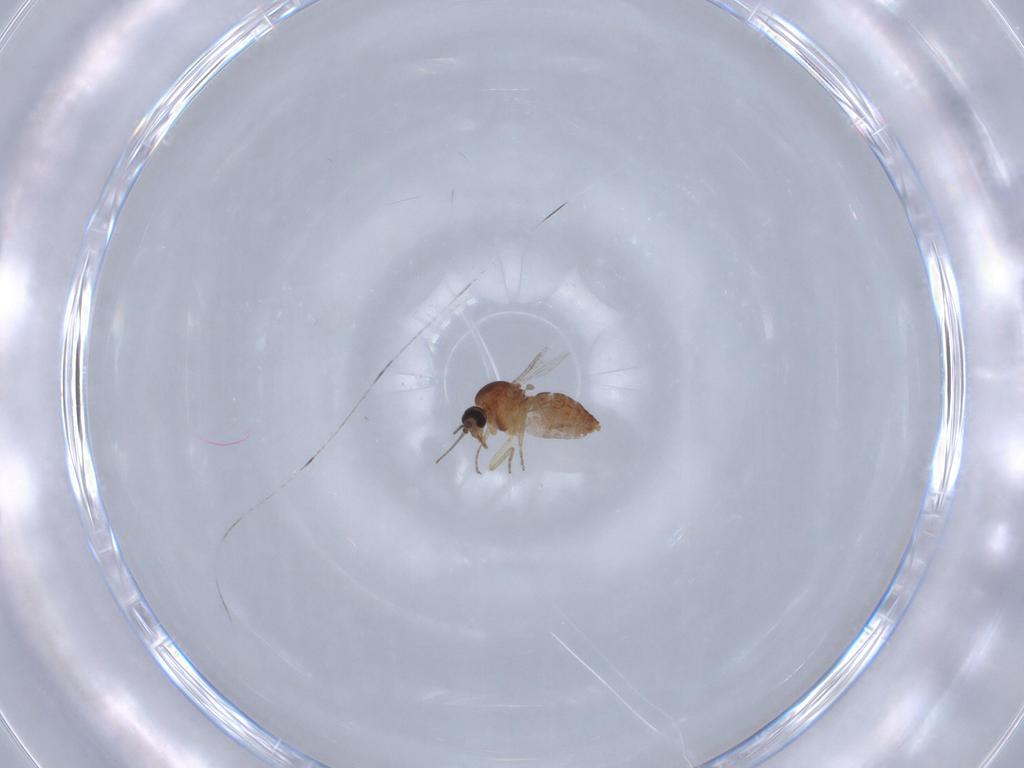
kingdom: Animalia
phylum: Arthropoda
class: Insecta
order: Diptera
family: Ceratopogonidae
